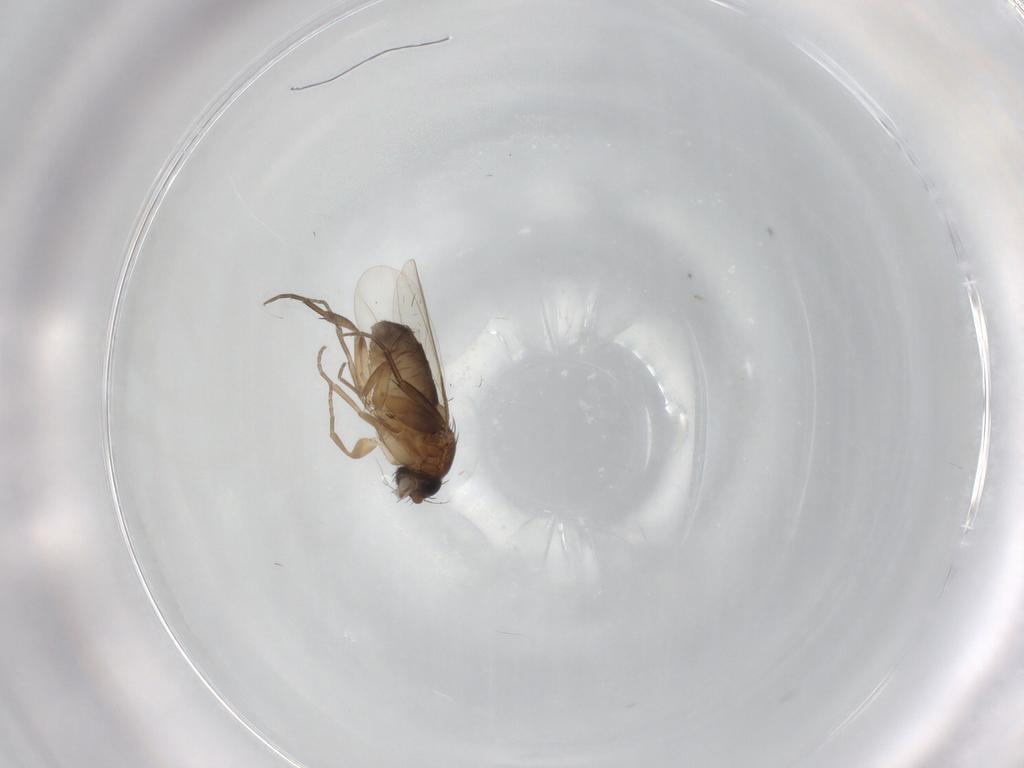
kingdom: Animalia
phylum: Arthropoda
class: Insecta
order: Diptera
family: Phoridae
